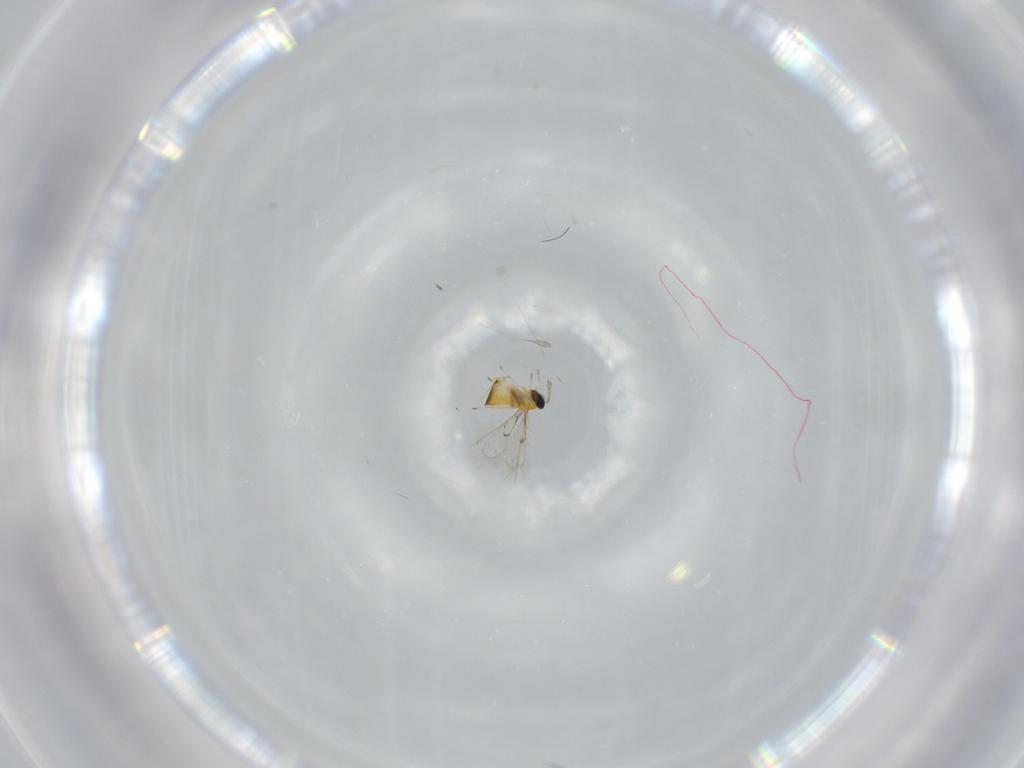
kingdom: Animalia
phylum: Arthropoda
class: Insecta
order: Hymenoptera
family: Trichogrammatidae
